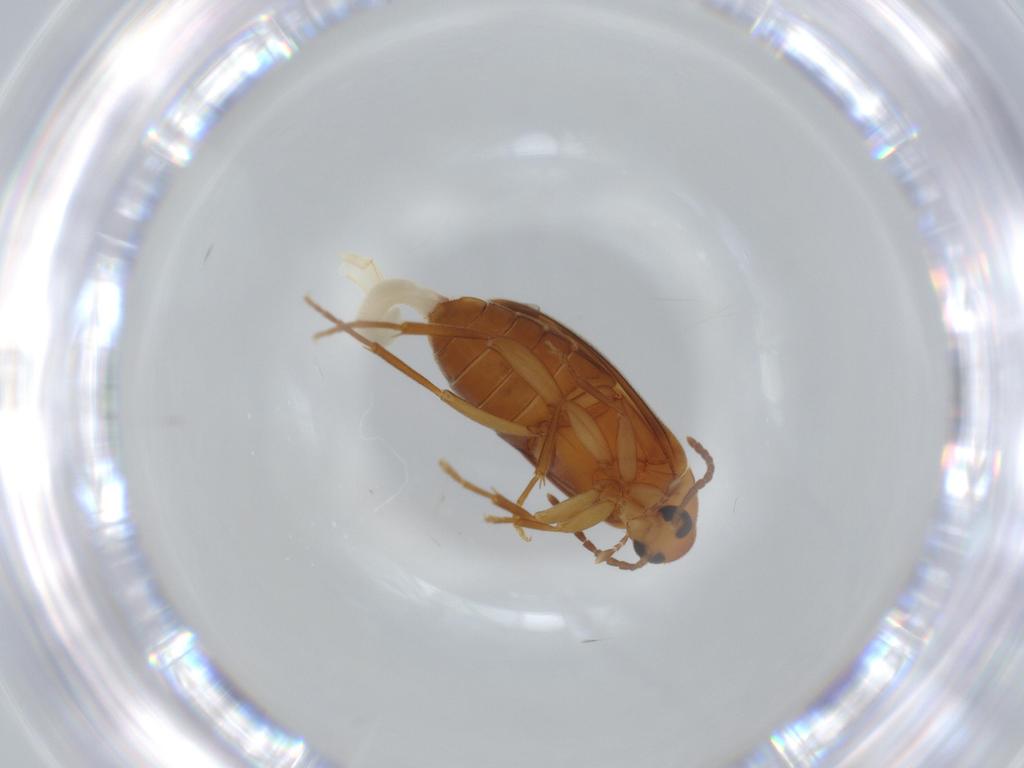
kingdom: Animalia
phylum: Arthropoda
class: Insecta
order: Coleoptera
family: Scraptiidae
